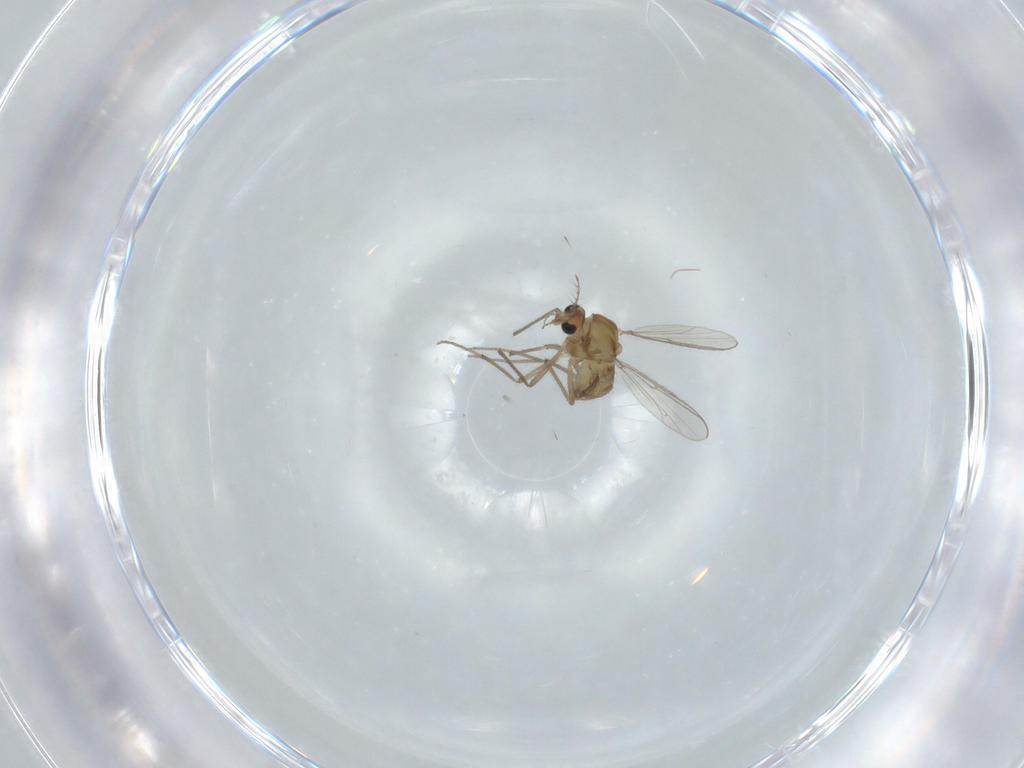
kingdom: Animalia
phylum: Arthropoda
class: Insecta
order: Diptera
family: Chironomidae
